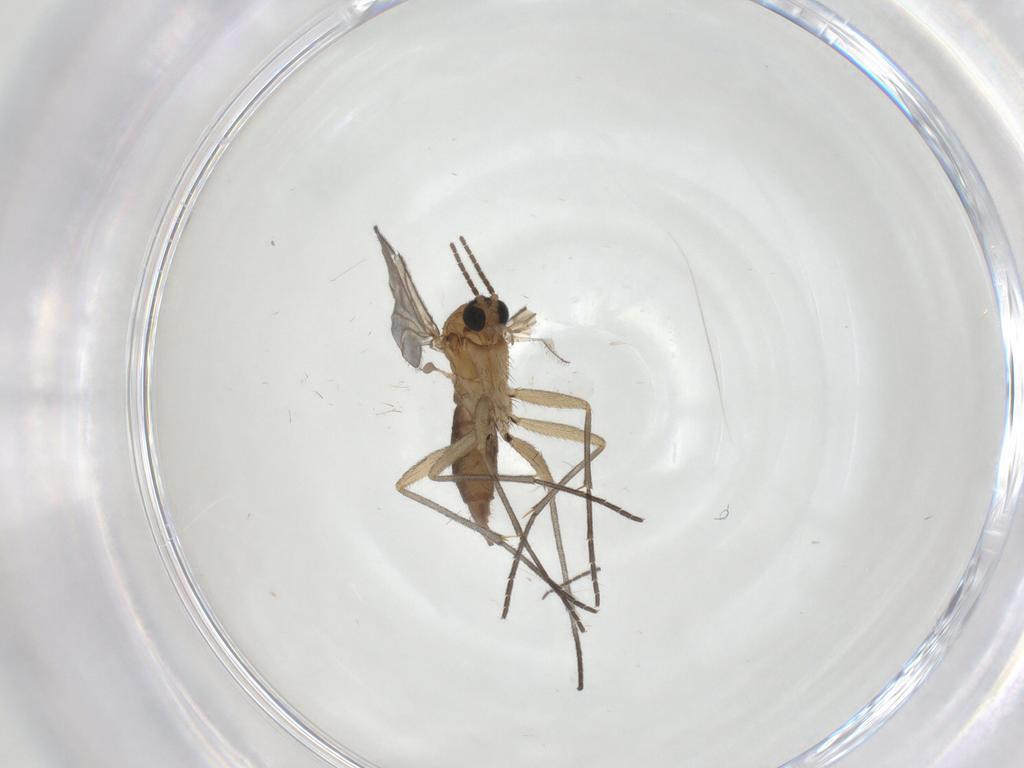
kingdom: Animalia
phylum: Arthropoda
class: Insecta
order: Diptera
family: Sciaridae
